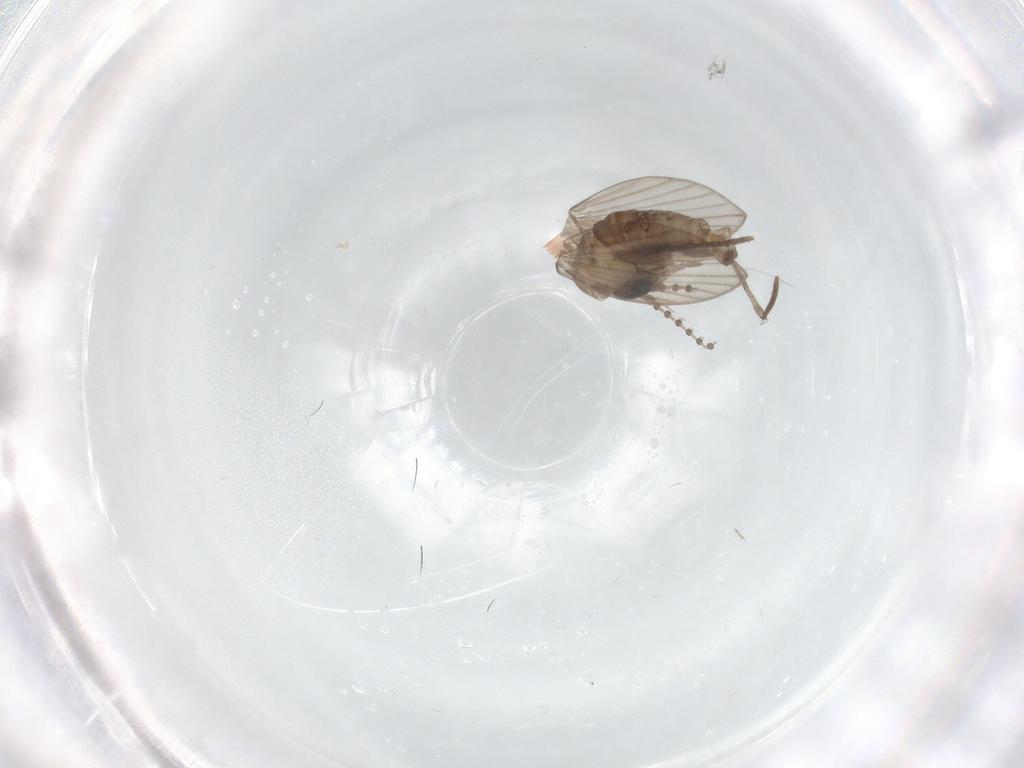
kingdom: Animalia
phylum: Arthropoda
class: Insecta
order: Diptera
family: Psychodidae
